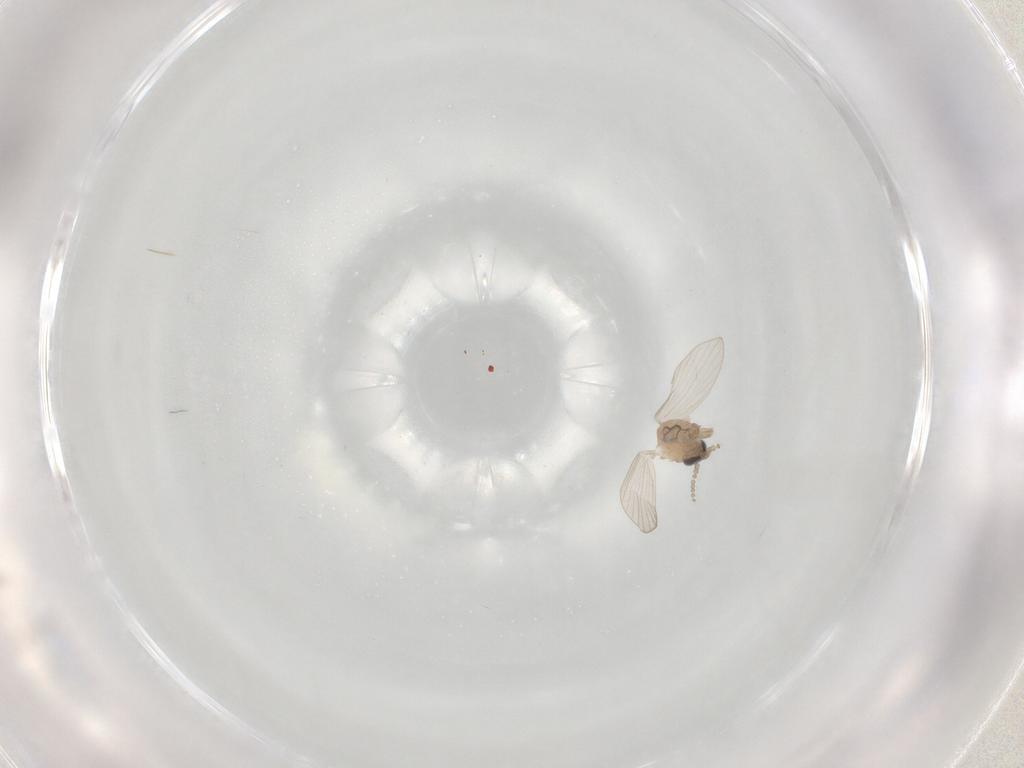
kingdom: Animalia
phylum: Arthropoda
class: Insecta
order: Diptera
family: Psychodidae
